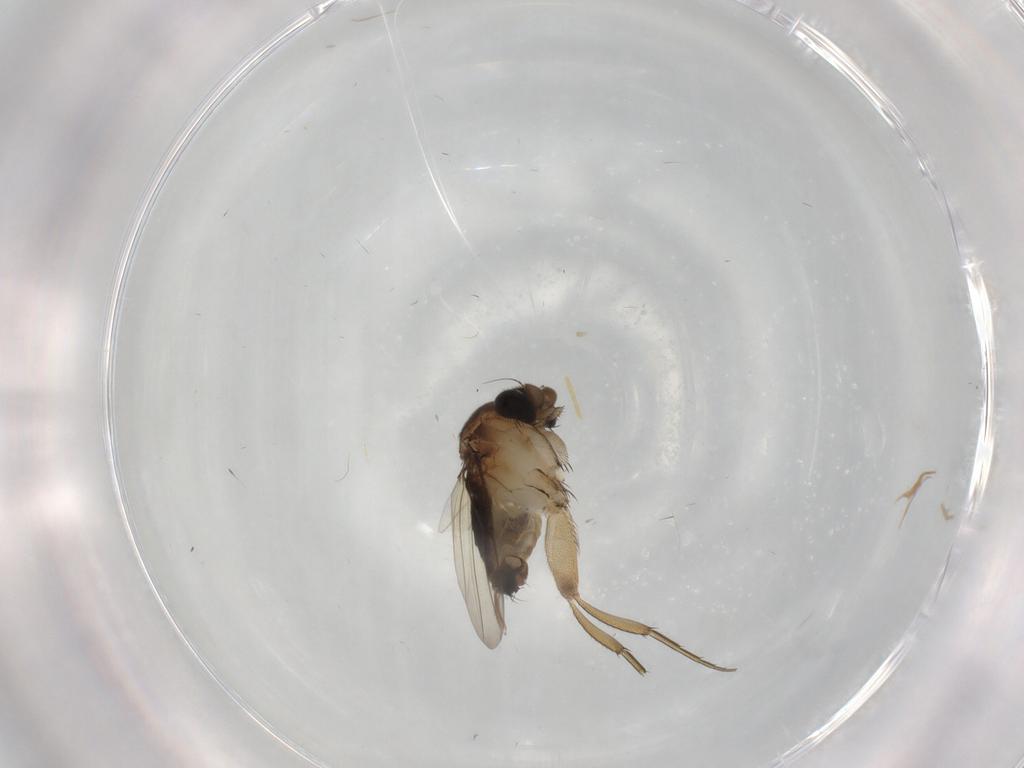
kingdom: Animalia
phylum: Arthropoda
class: Insecta
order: Diptera
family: Phoridae
